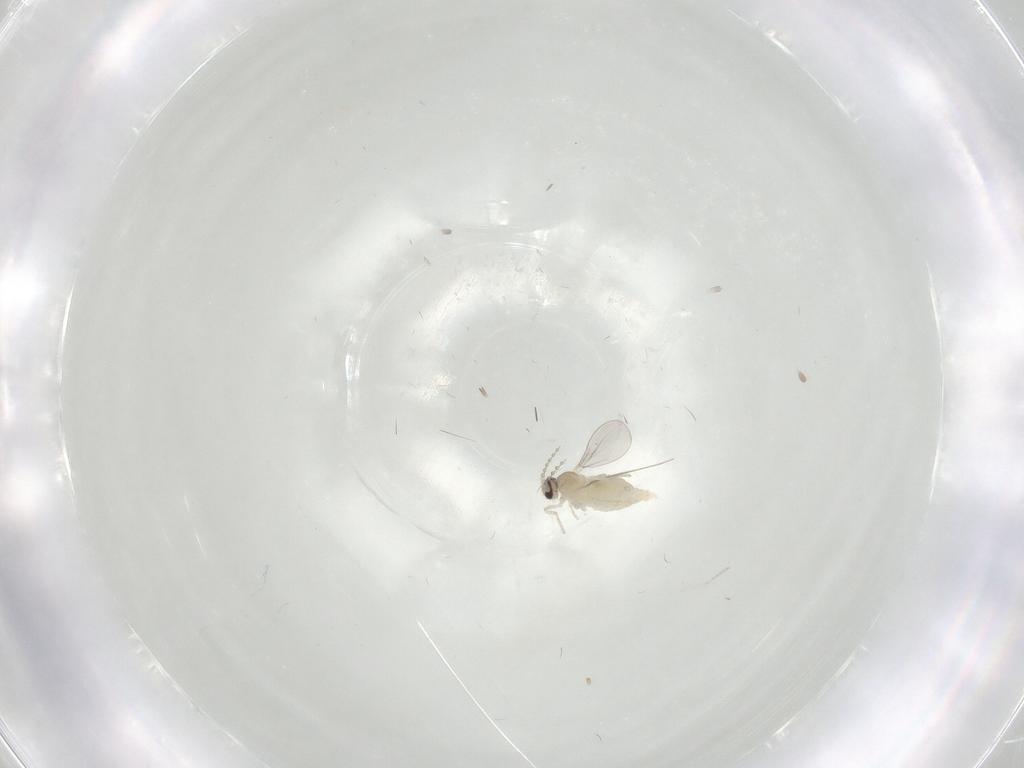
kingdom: Animalia
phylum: Arthropoda
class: Insecta
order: Diptera
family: Cecidomyiidae
